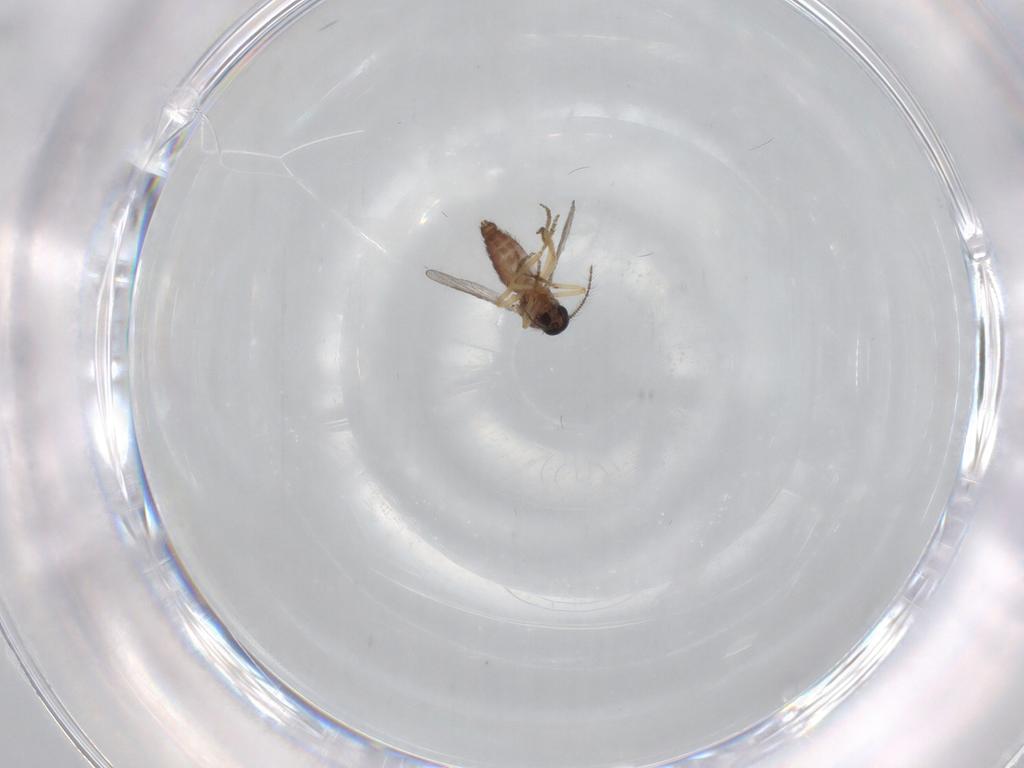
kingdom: Animalia
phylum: Arthropoda
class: Insecta
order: Diptera
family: Ceratopogonidae
